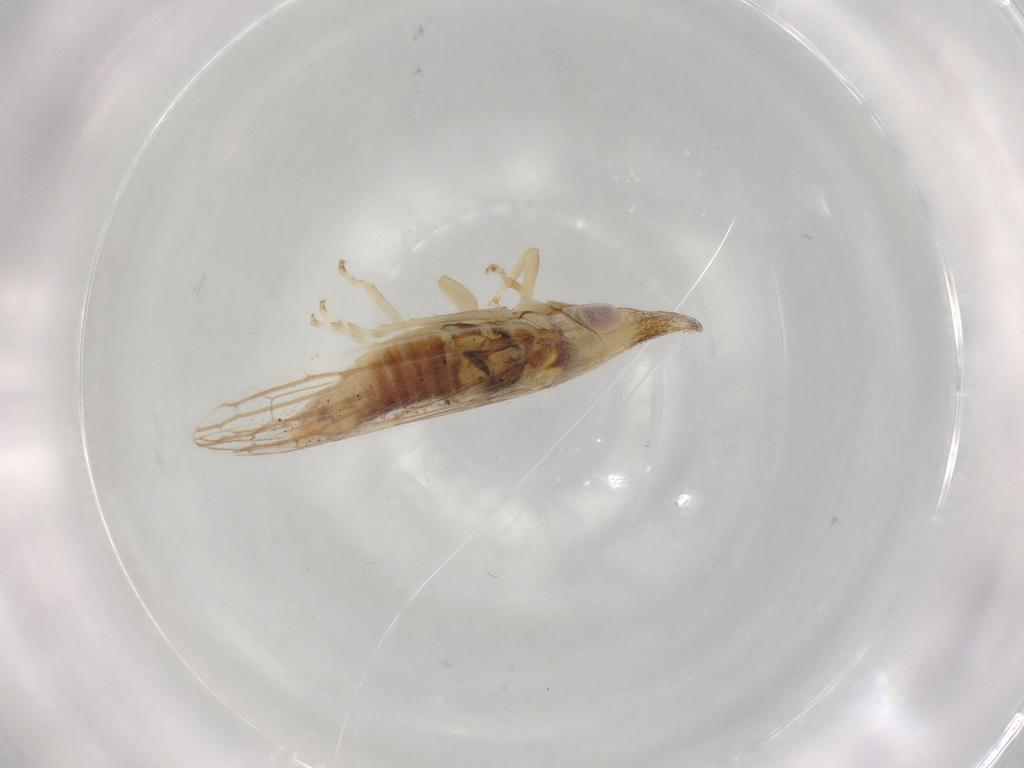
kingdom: Animalia
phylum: Arthropoda
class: Insecta
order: Hemiptera
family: Cicadellidae
